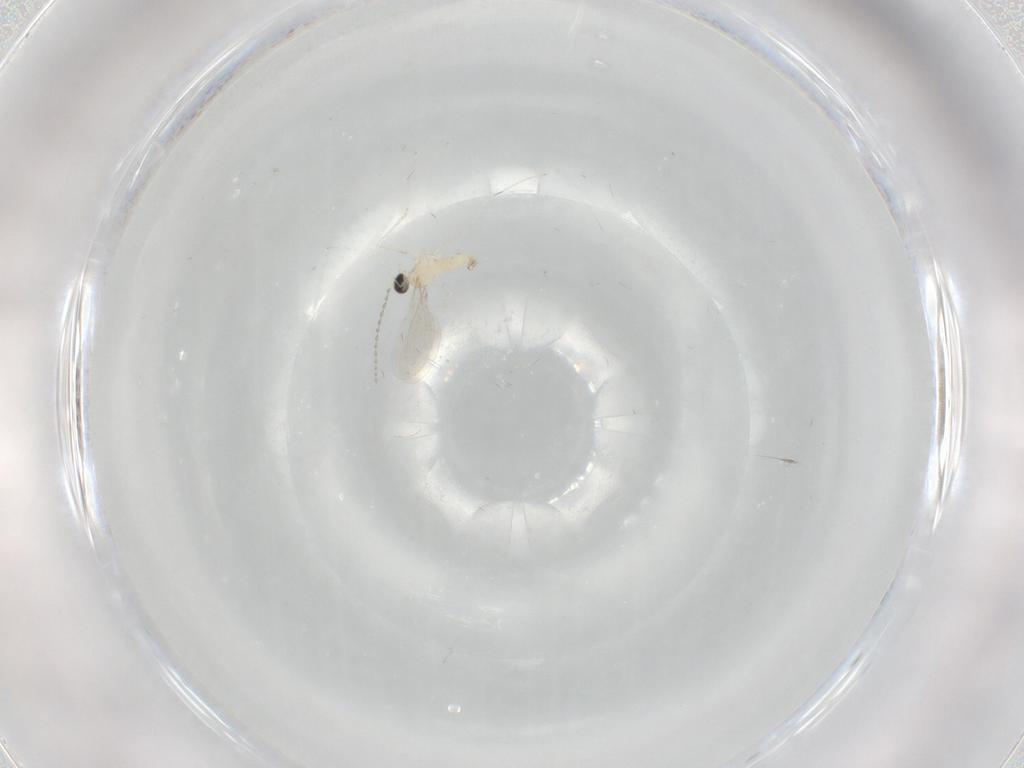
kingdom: Animalia
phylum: Arthropoda
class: Insecta
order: Diptera
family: Cecidomyiidae
